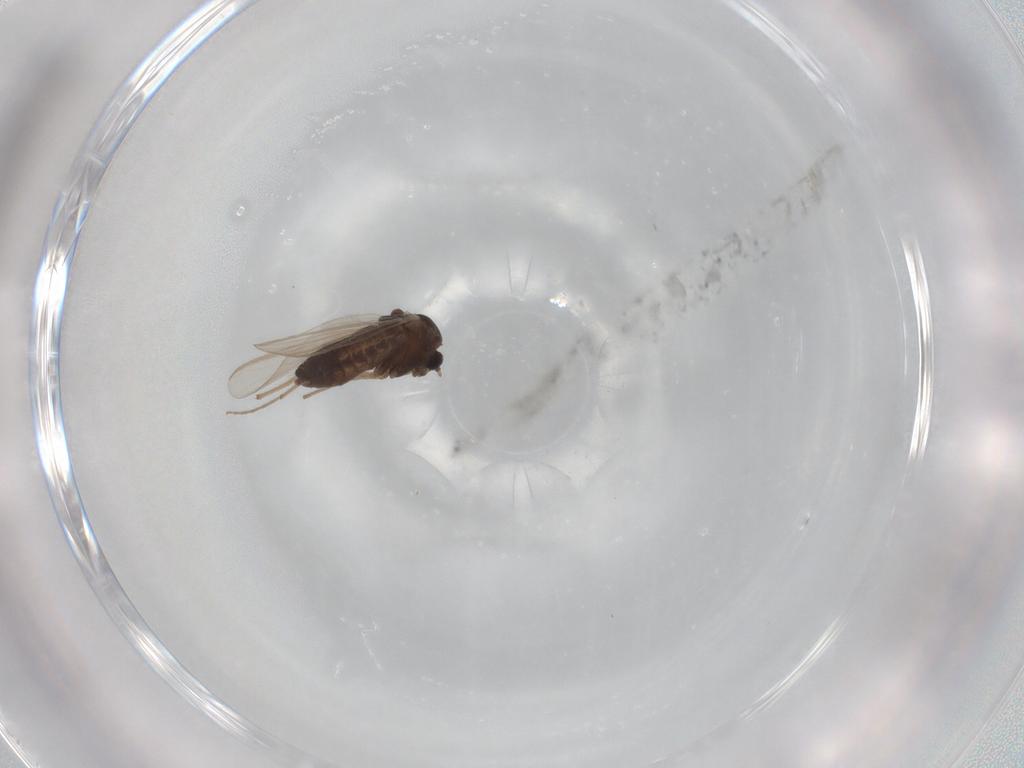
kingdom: Animalia
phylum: Arthropoda
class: Insecta
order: Diptera
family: Chironomidae
